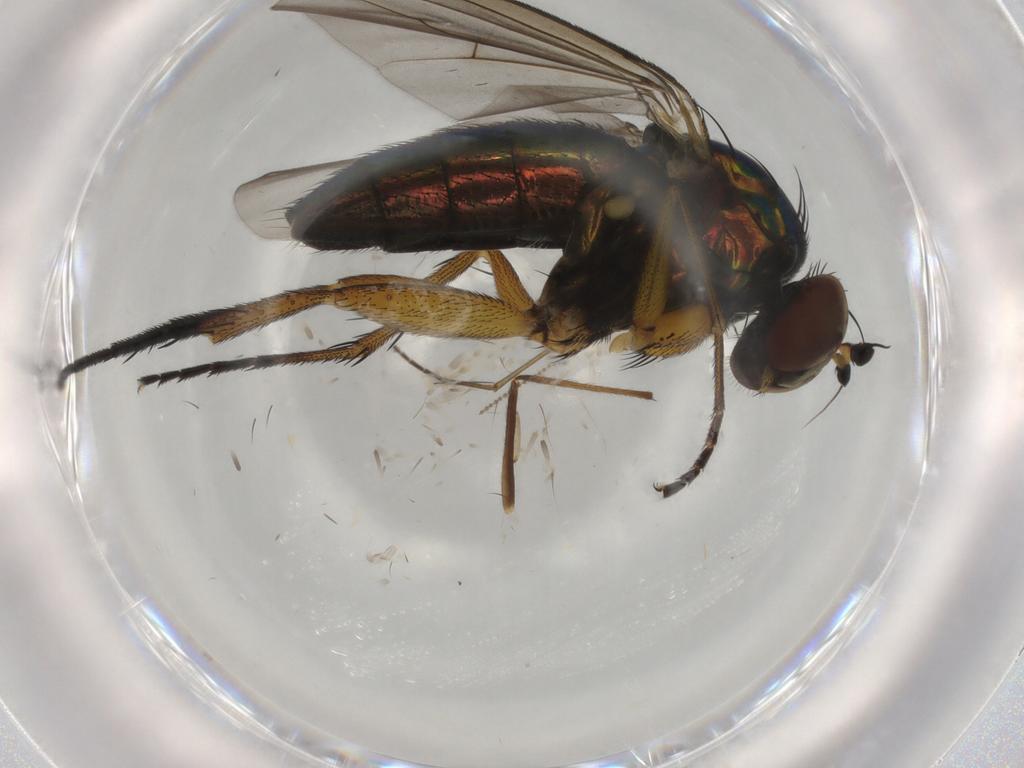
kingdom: Animalia
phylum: Arthropoda
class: Insecta
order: Diptera
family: Dolichopodidae
